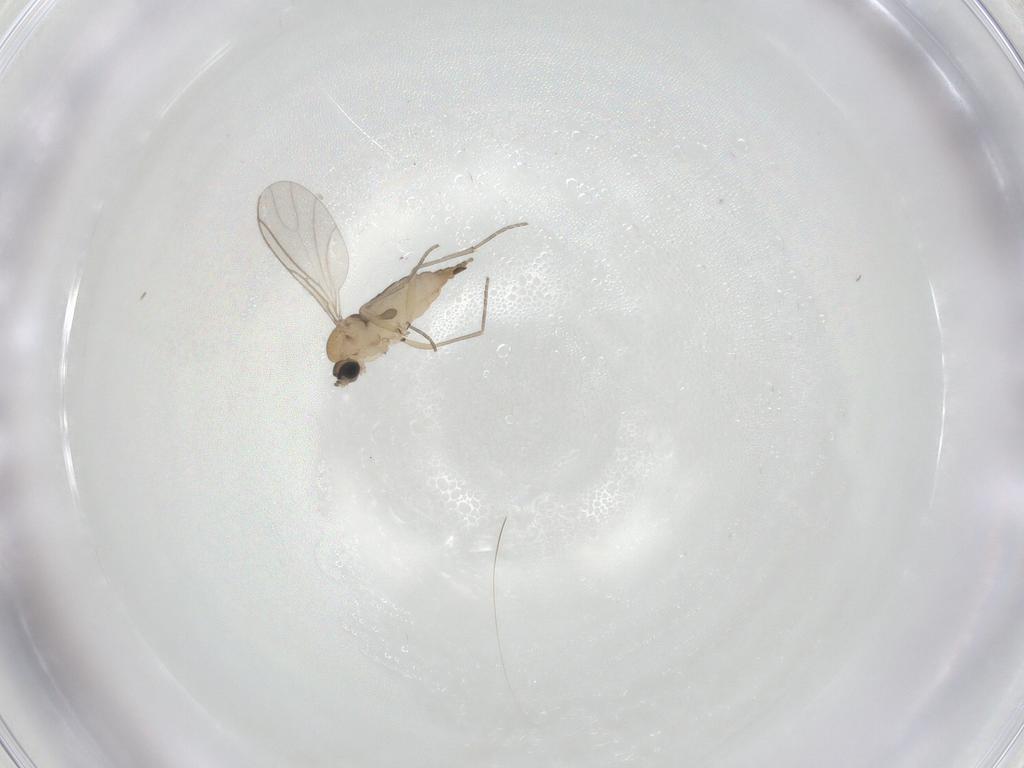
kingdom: Animalia
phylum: Arthropoda
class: Insecta
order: Diptera
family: Sciaridae
